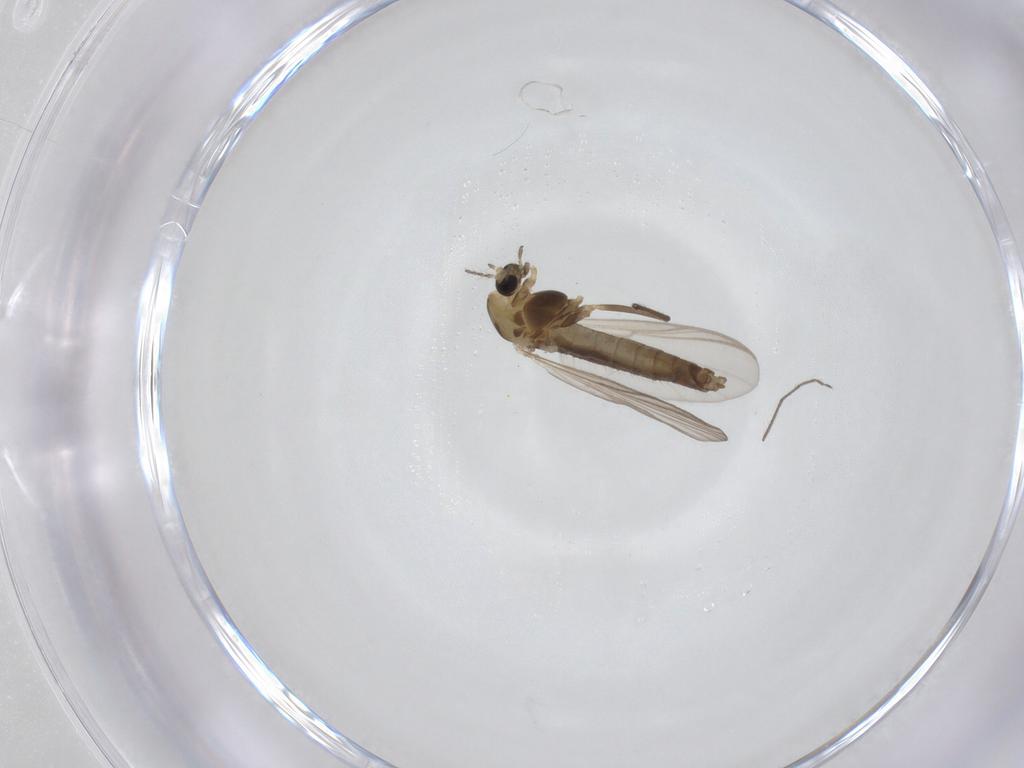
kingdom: Animalia
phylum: Arthropoda
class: Insecta
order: Diptera
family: Chironomidae
